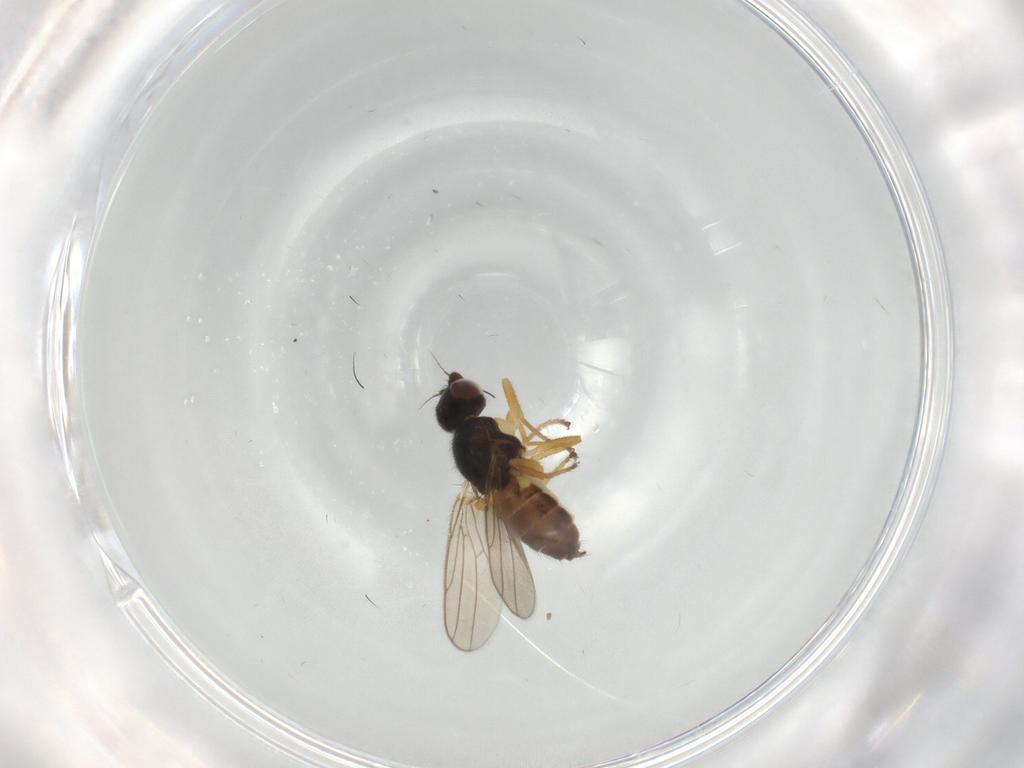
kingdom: Animalia
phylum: Arthropoda
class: Insecta
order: Diptera
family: Chloropidae
